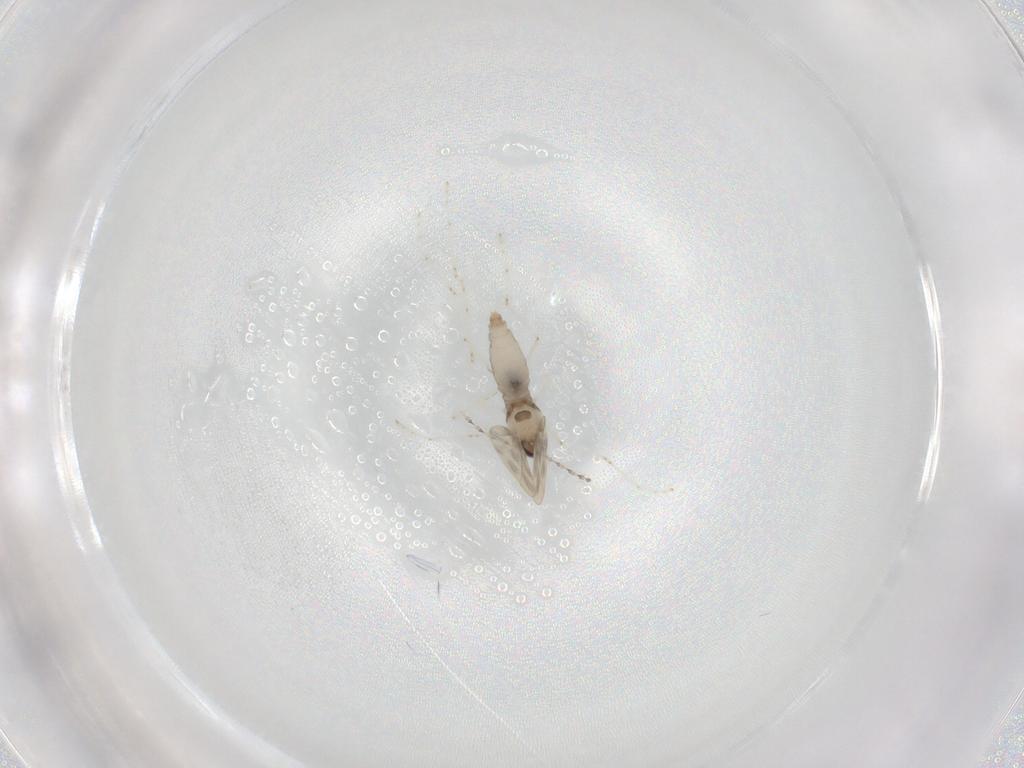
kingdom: Animalia
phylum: Arthropoda
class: Insecta
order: Diptera
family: Cecidomyiidae
